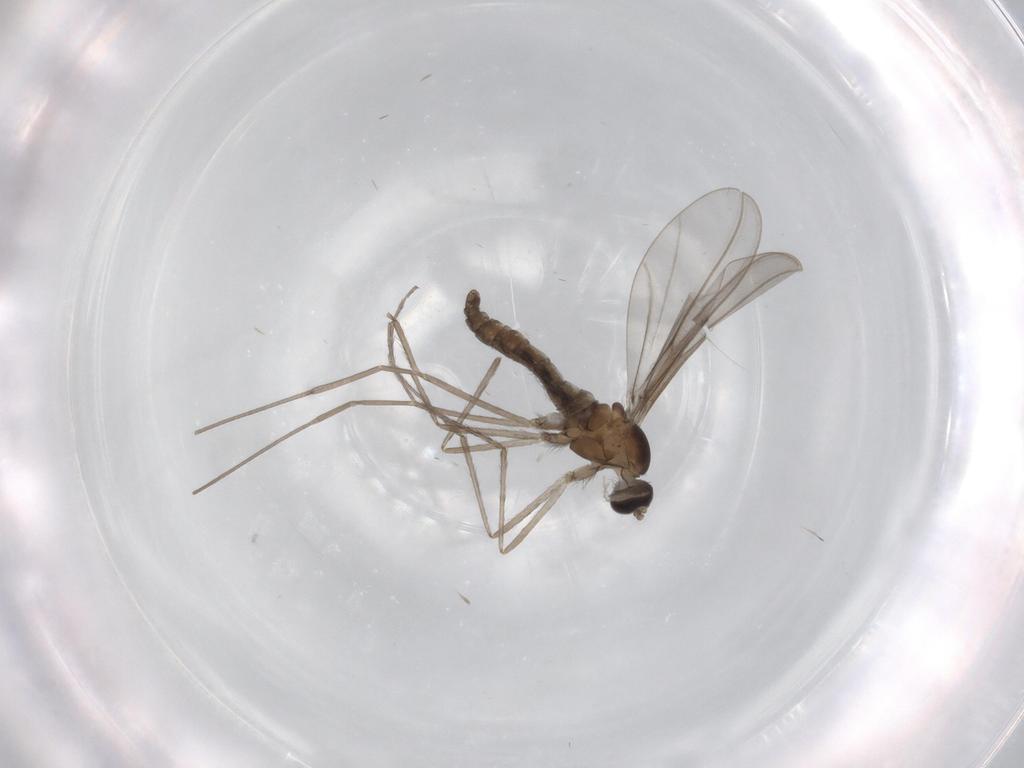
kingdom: Animalia
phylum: Arthropoda
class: Insecta
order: Diptera
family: Cecidomyiidae
